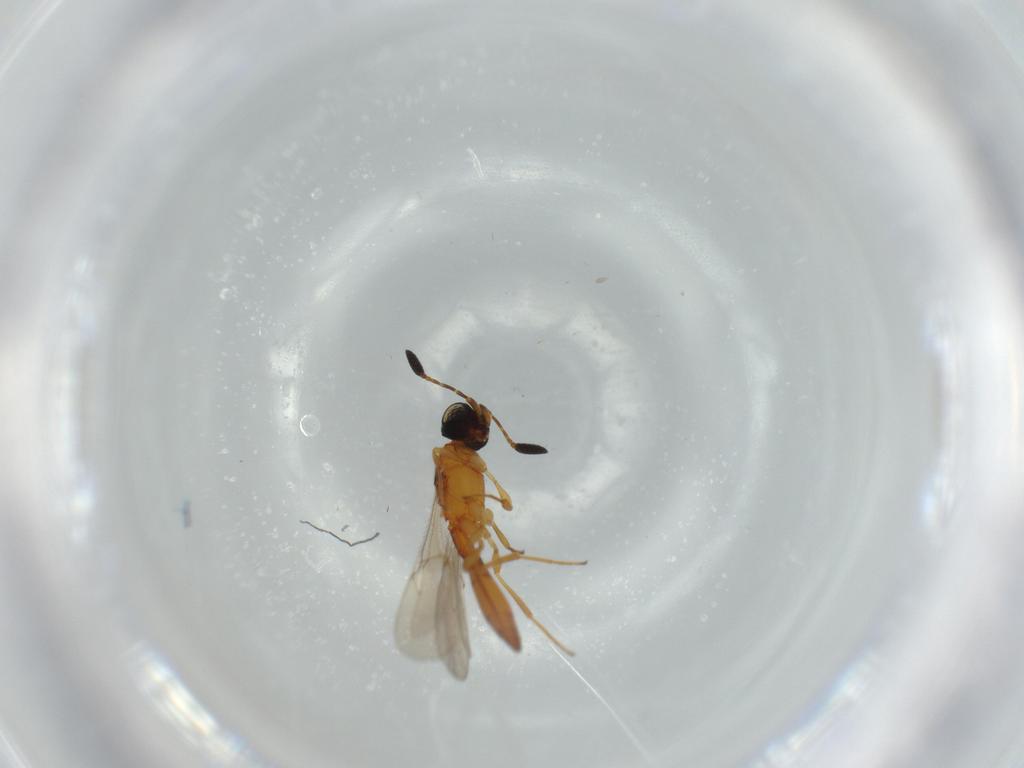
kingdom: Animalia
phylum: Arthropoda
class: Insecta
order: Hymenoptera
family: Scelionidae
